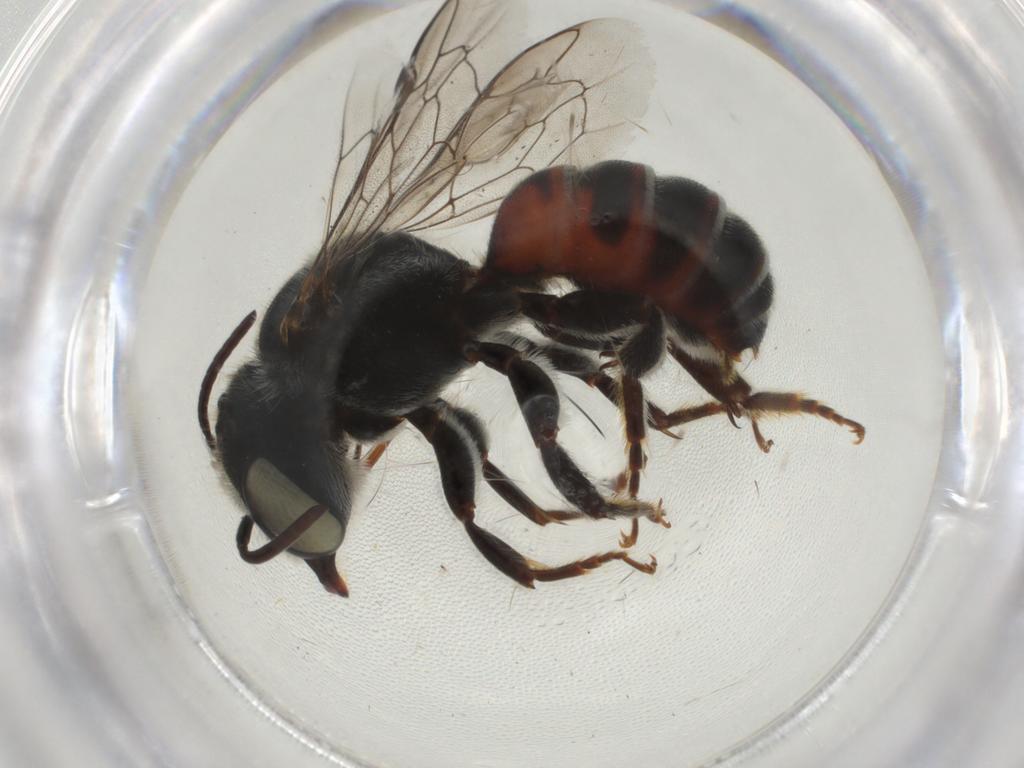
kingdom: Animalia
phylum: Arthropoda
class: Insecta
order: Hymenoptera
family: Megachilidae
